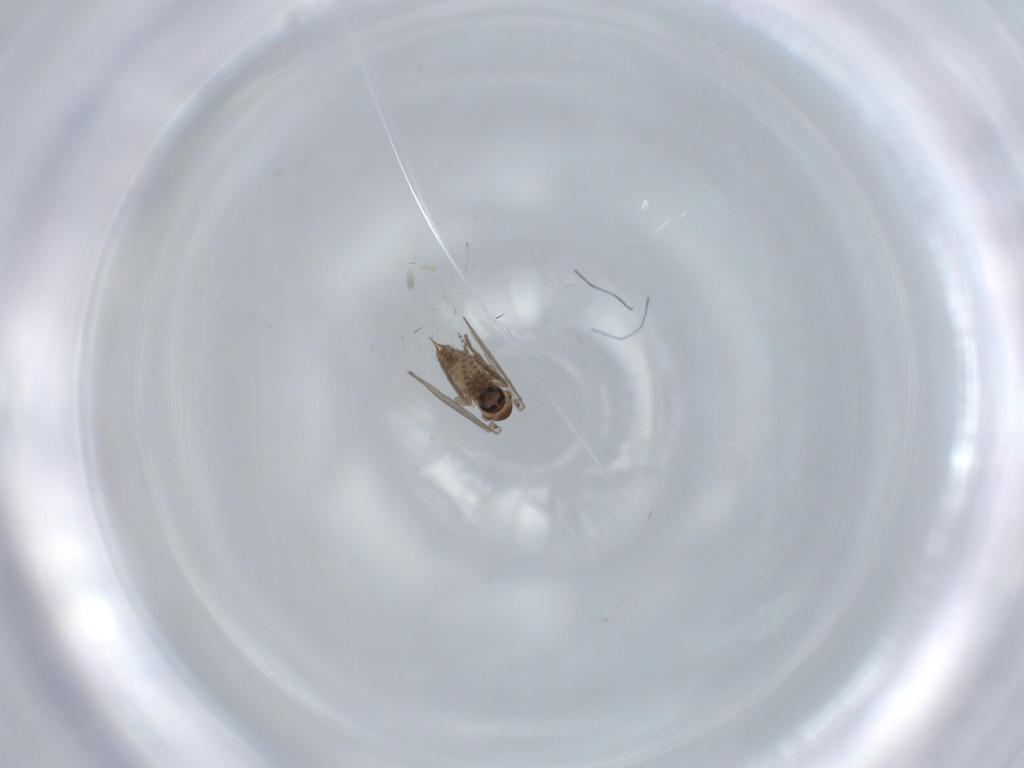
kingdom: Animalia
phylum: Arthropoda
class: Insecta
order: Diptera
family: Psychodidae
